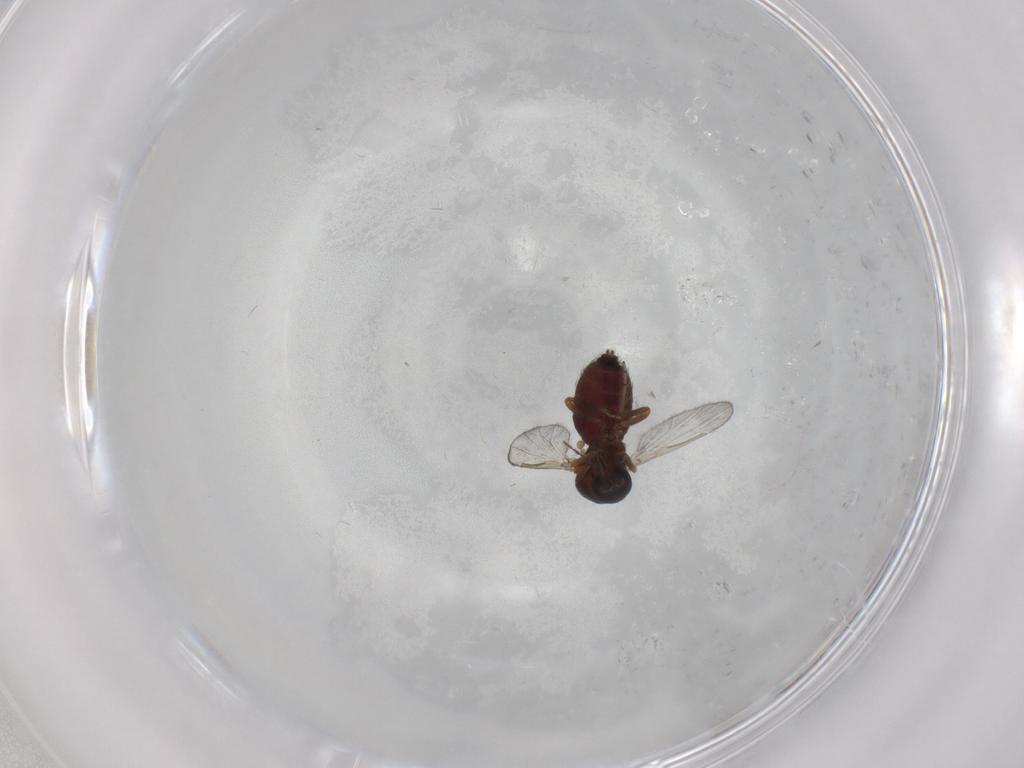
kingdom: Animalia
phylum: Arthropoda
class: Insecta
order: Diptera
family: Ceratopogonidae
